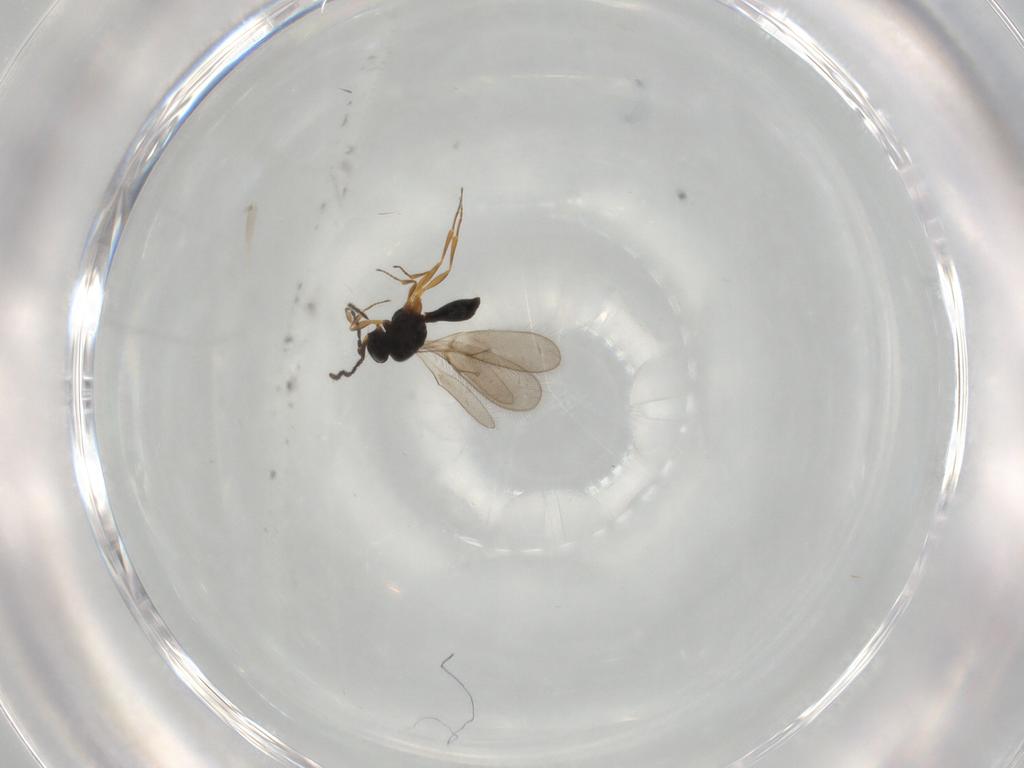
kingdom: Animalia
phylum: Arthropoda
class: Insecta
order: Hymenoptera
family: Scelionidae
